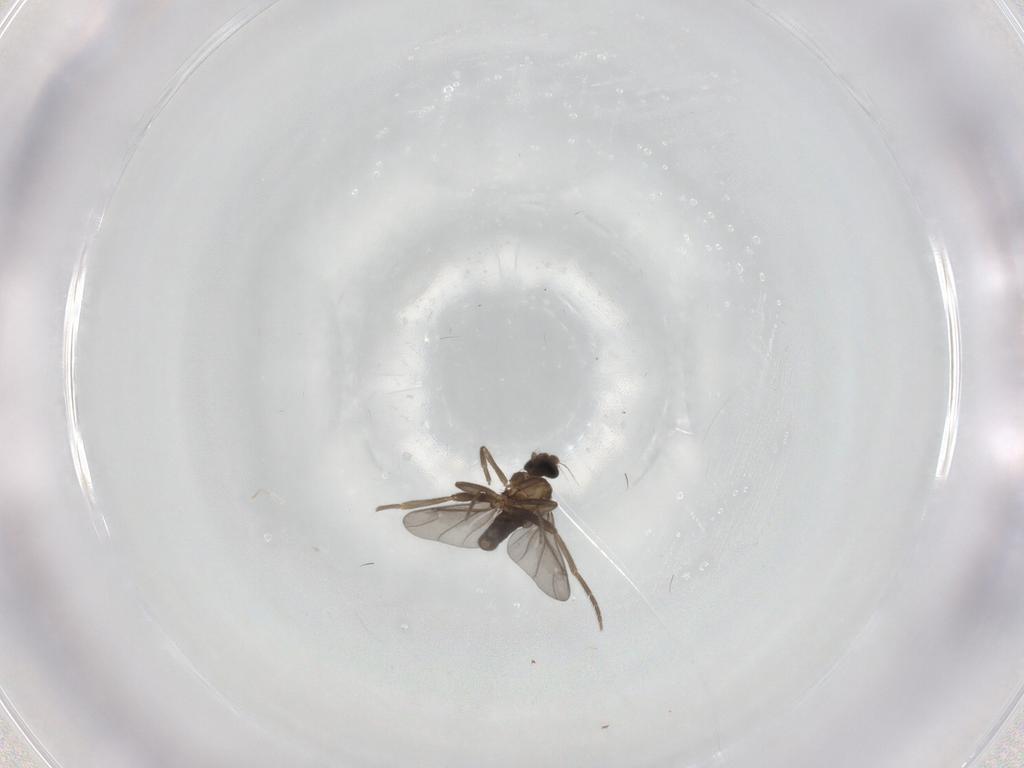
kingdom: Animalia
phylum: Arthropoda
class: Insecta
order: Diptera
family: Phoridae
